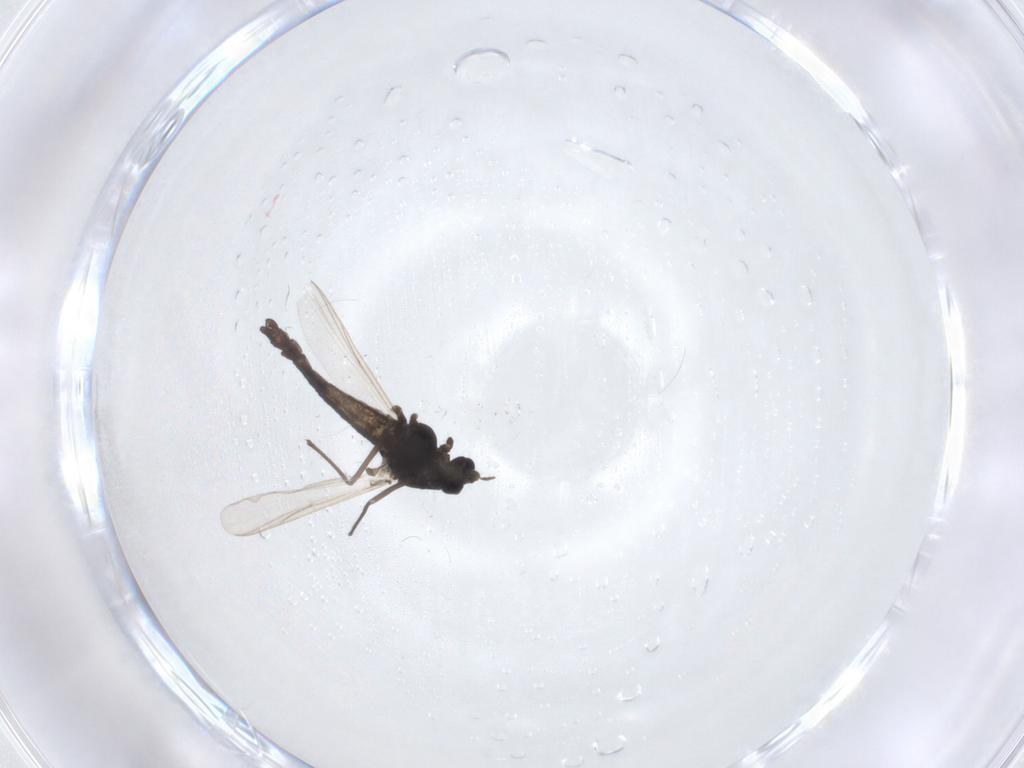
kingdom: Animalia
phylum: Arthropoda
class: Insecta
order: Diptera
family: Chironomidae
